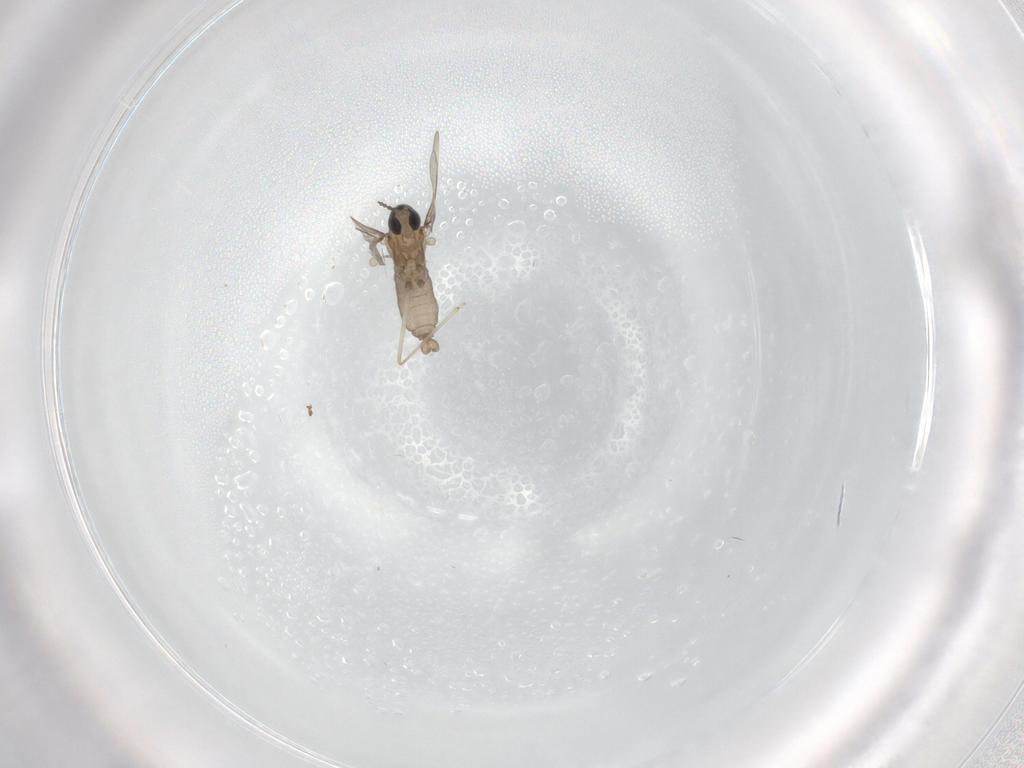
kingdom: Animalia
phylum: Arthropoda
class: Insecta
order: Diptera
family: Cecidomyiidae
